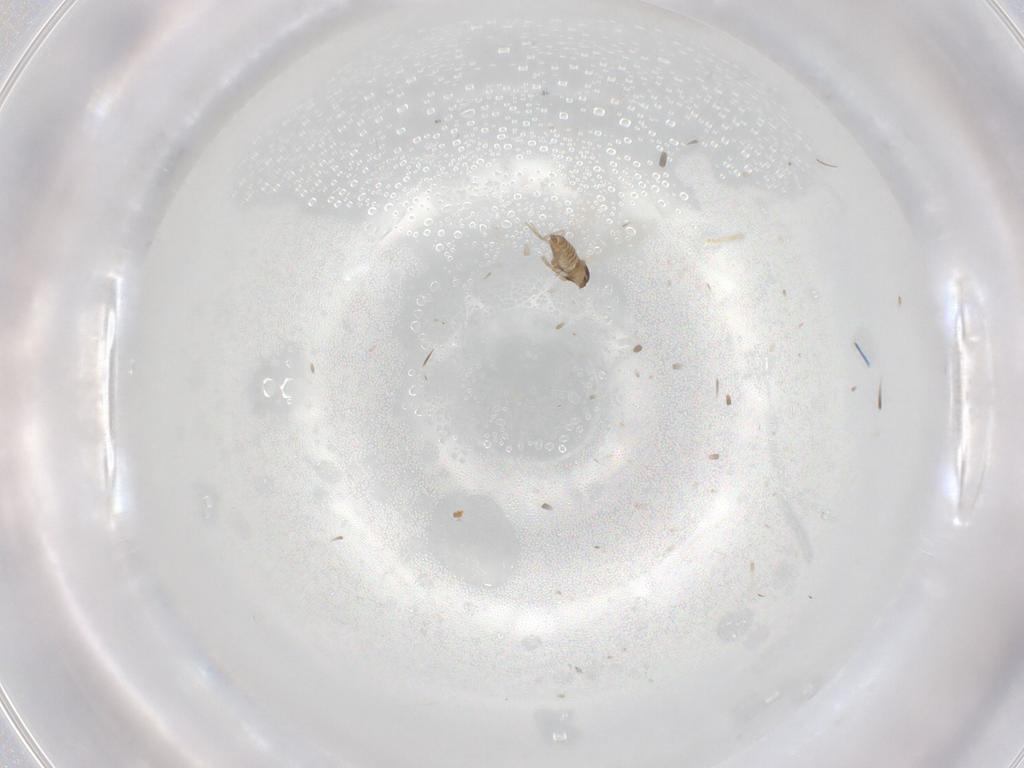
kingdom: Animalia
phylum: Arthropoda
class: Insecta
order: Diptera
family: Cecidomyiidae
